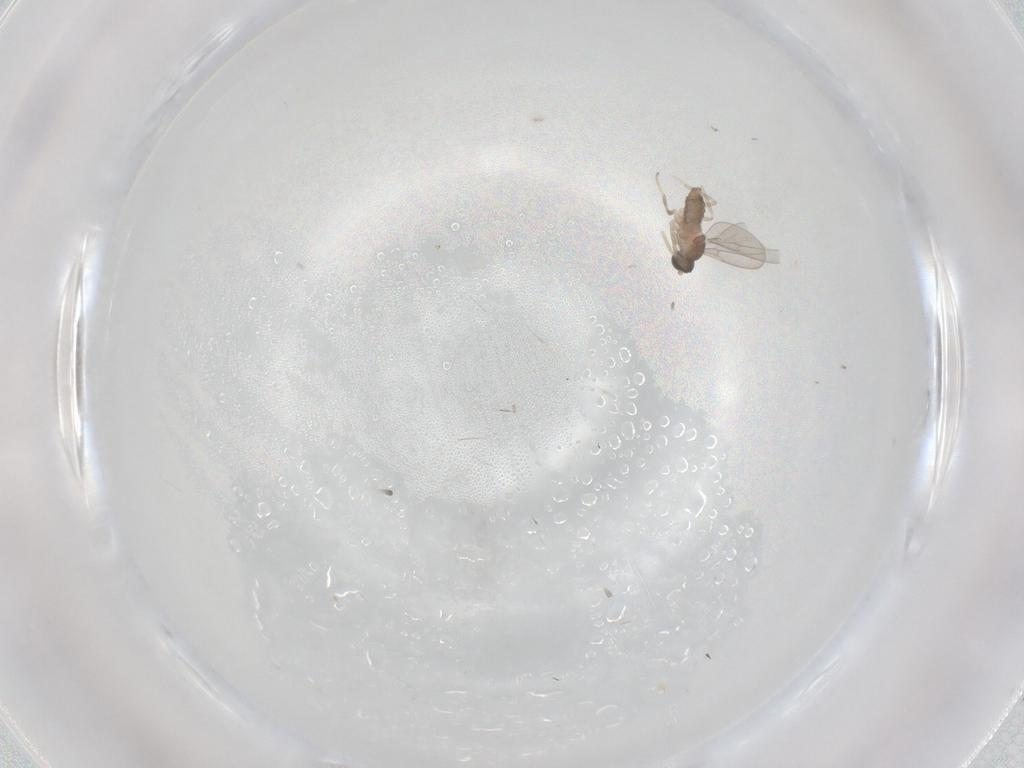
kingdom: Animalia
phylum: Arthropoda
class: Insecta
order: Diptera
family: Cecidomyiidae
